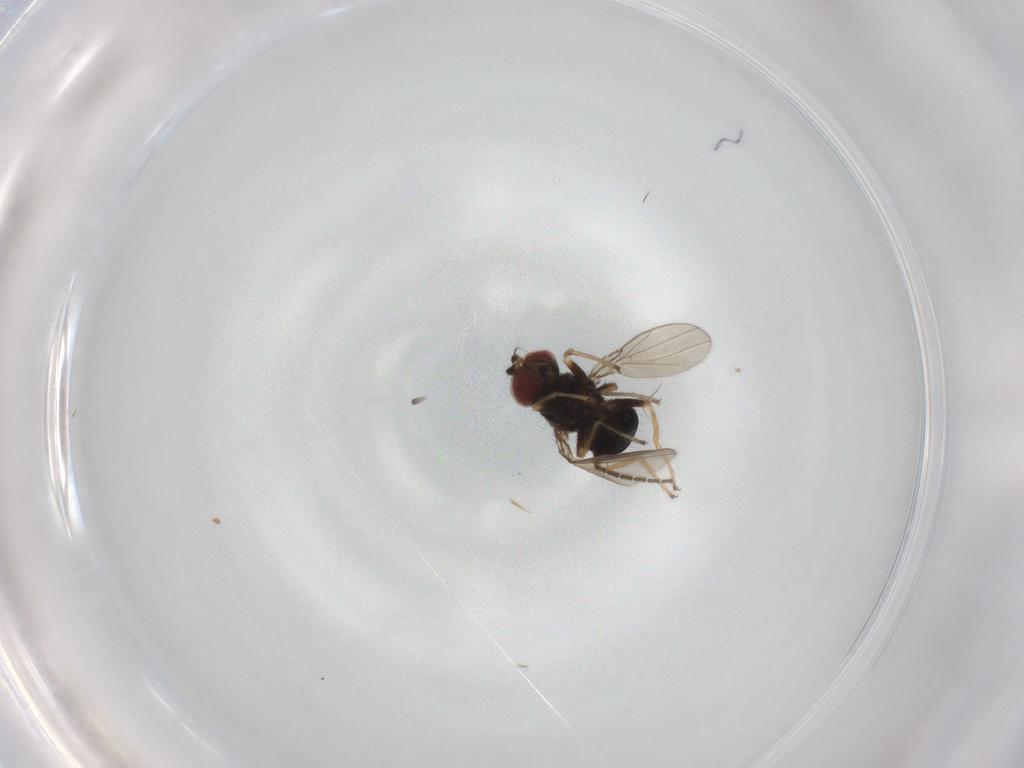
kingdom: Animalia
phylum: Arthropoda
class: Insecta
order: Diptera
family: Ephydridae
